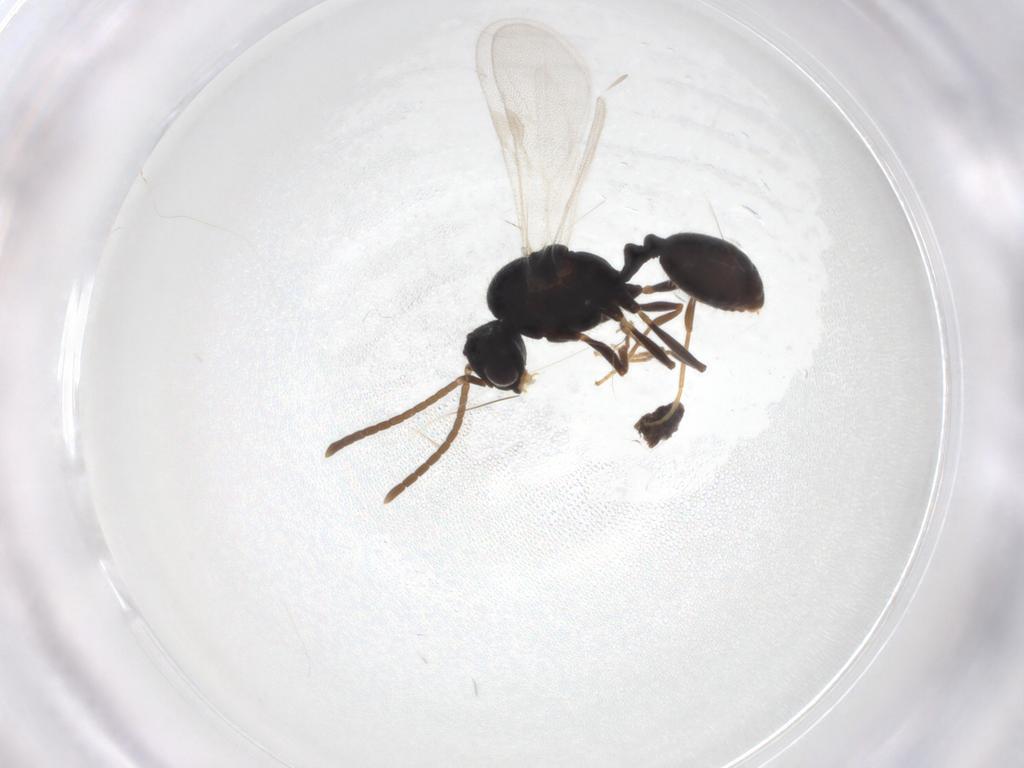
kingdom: Animalia
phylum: Arthropoda
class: Insecta
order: Hymenoptera
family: Formicidae
